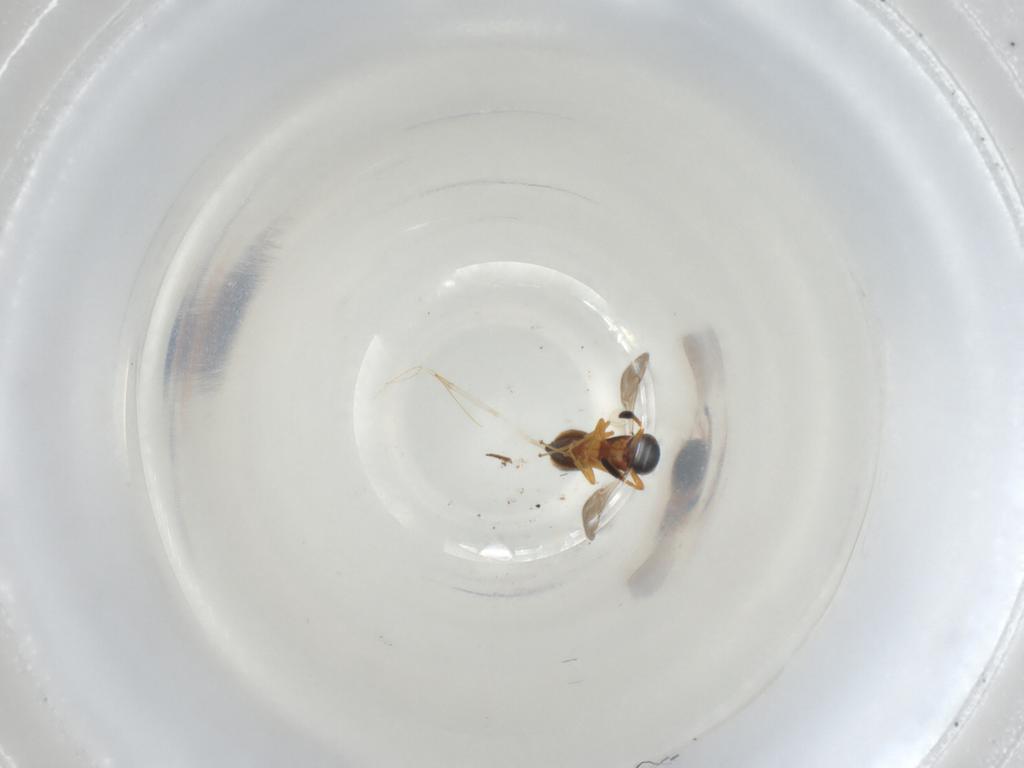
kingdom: Animalia
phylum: Arthropoda
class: Insecta
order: Hymenoptera
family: Scelionidae
